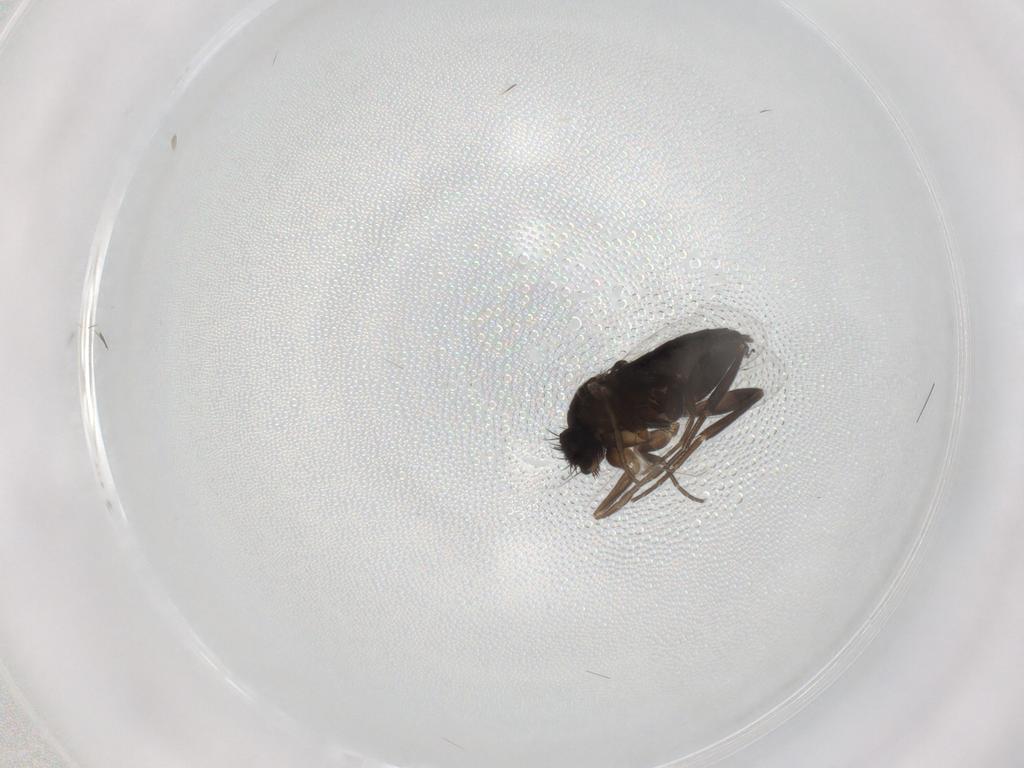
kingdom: Animalia
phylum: Arthropoda
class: Insecta
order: Diptera
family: Phoridae
